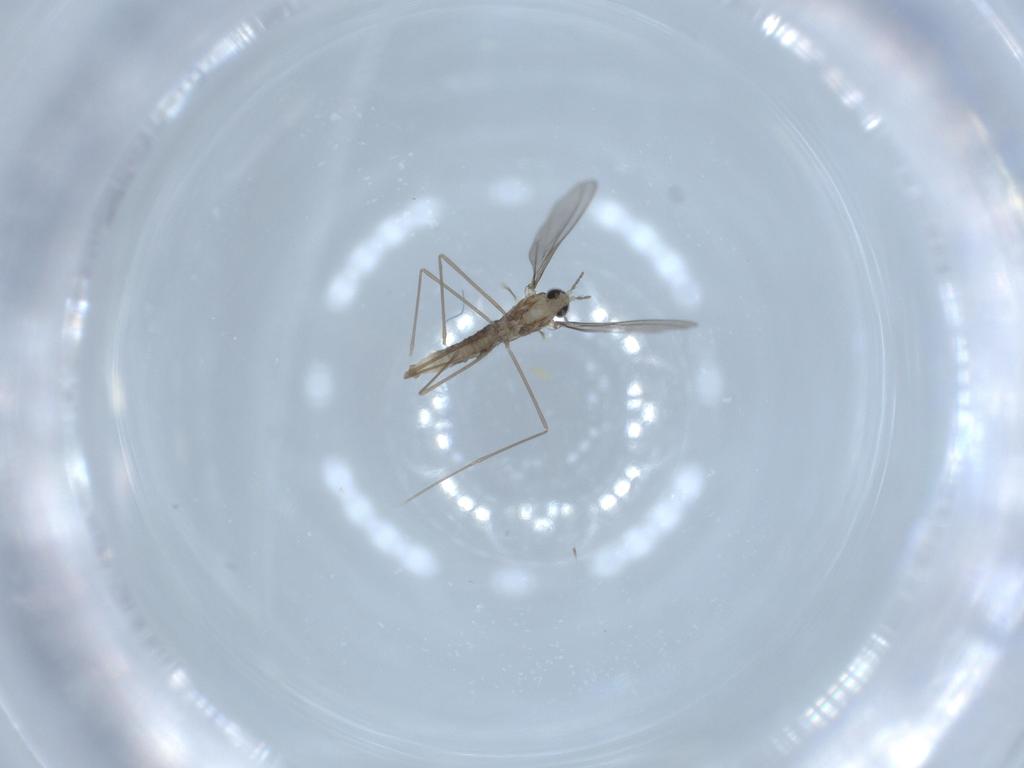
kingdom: Animalia
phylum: Arthropoda
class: Insecta
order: Diptera
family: Cecidomyiidae
